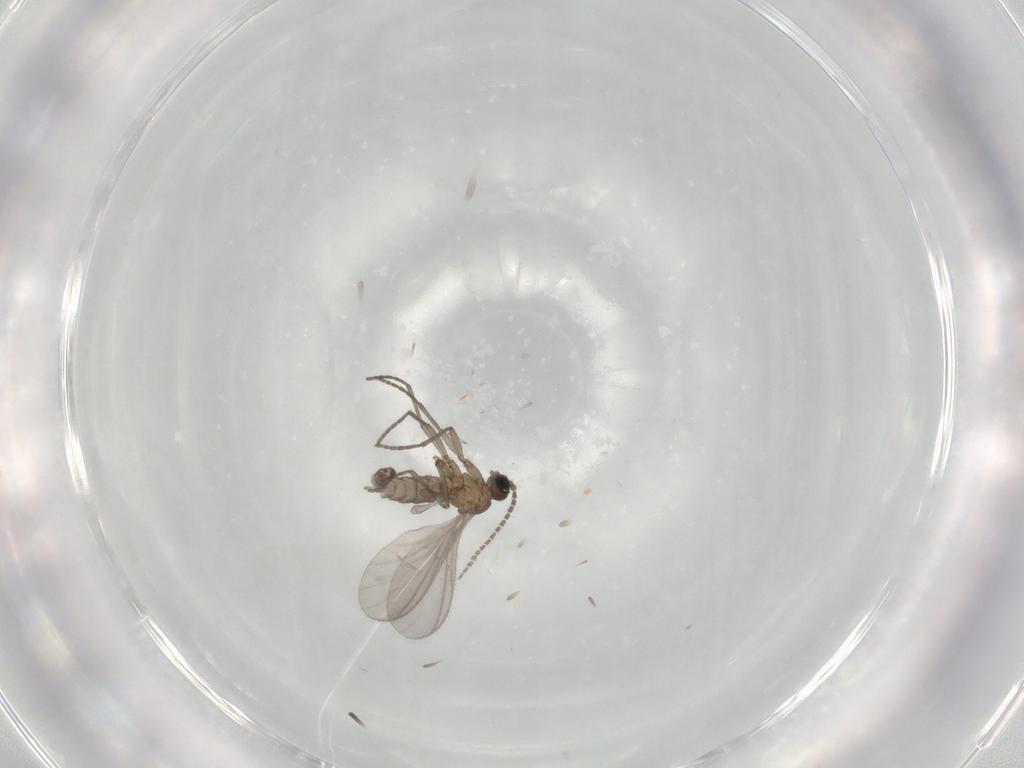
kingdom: Animalia
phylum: Arthropoda
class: Insecta
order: Diptera
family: Sciaridae
